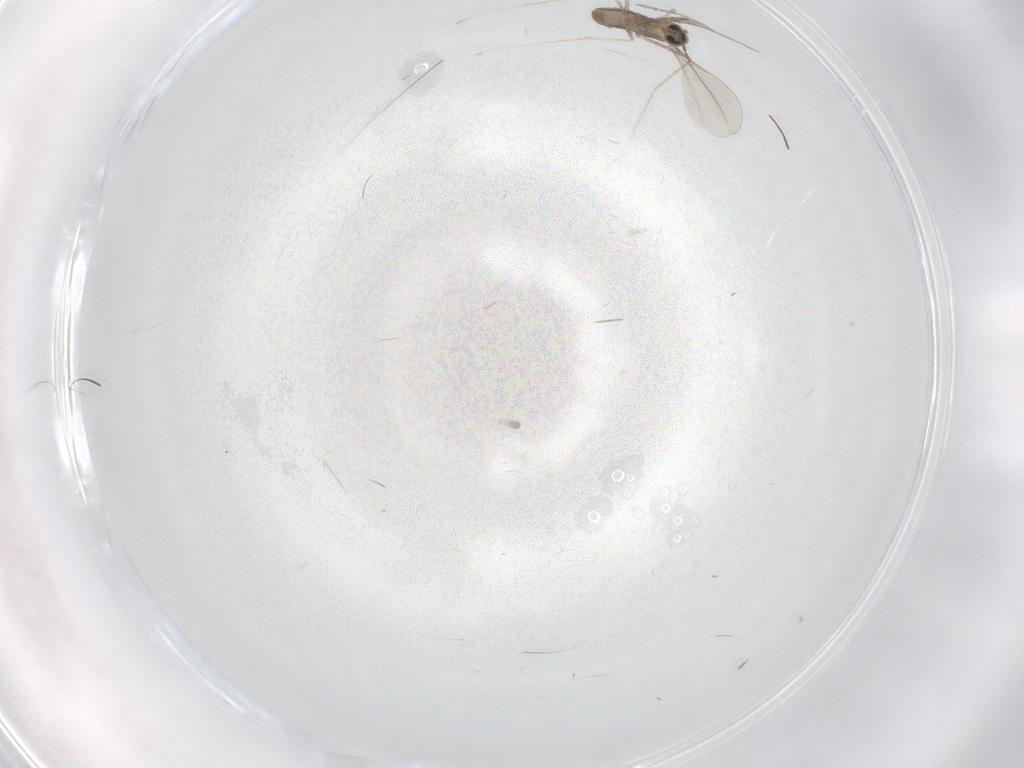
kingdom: Animalia
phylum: Arthropoda
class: Insecta
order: Diptera
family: Cecidomyiidae
